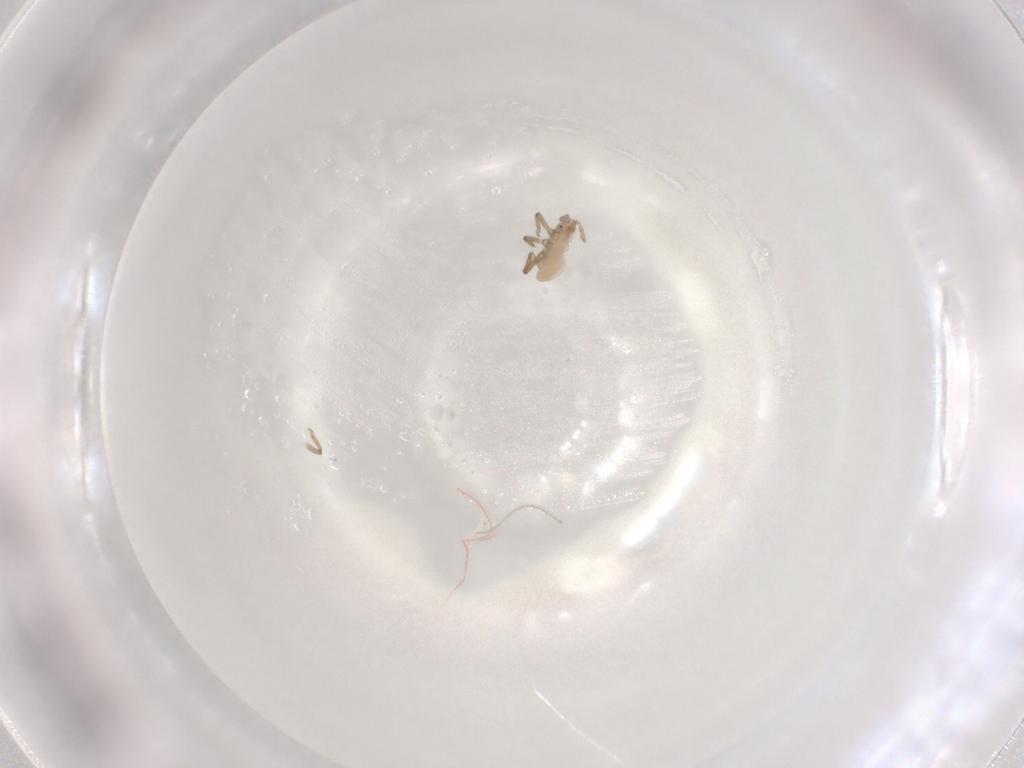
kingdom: Animalia
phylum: Arthropoda
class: Insecta
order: Hemiptera
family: Aphididae
